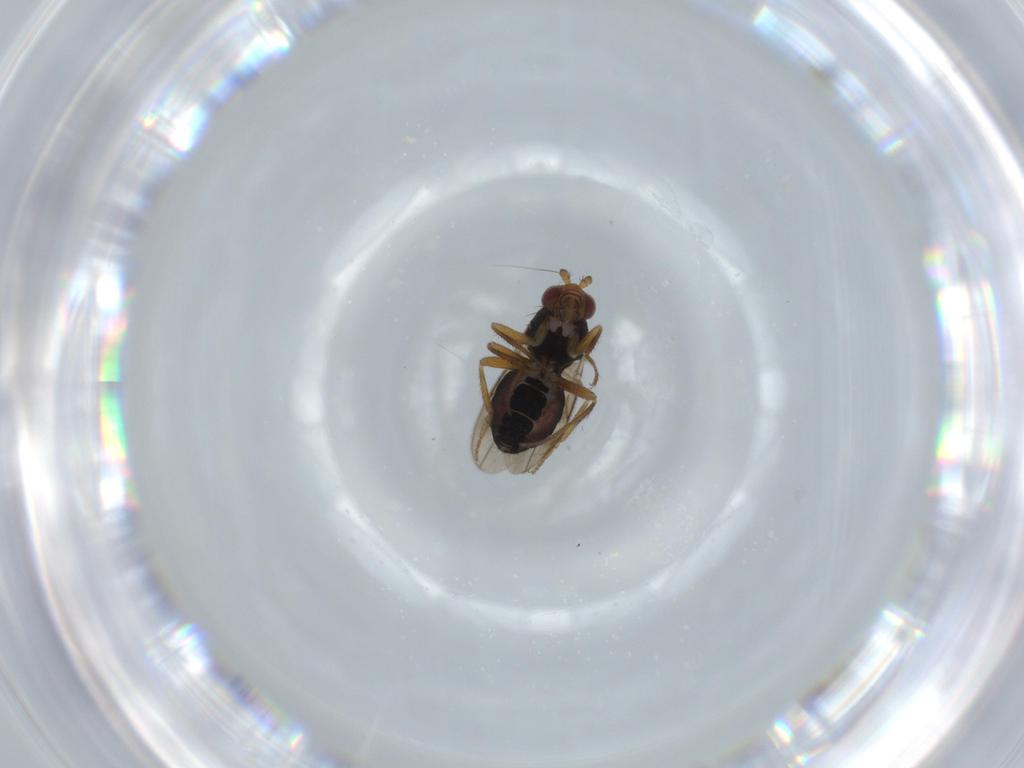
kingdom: Animalia
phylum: Arthropoda
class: Insecta
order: Diptera
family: Sphaeroceridae
